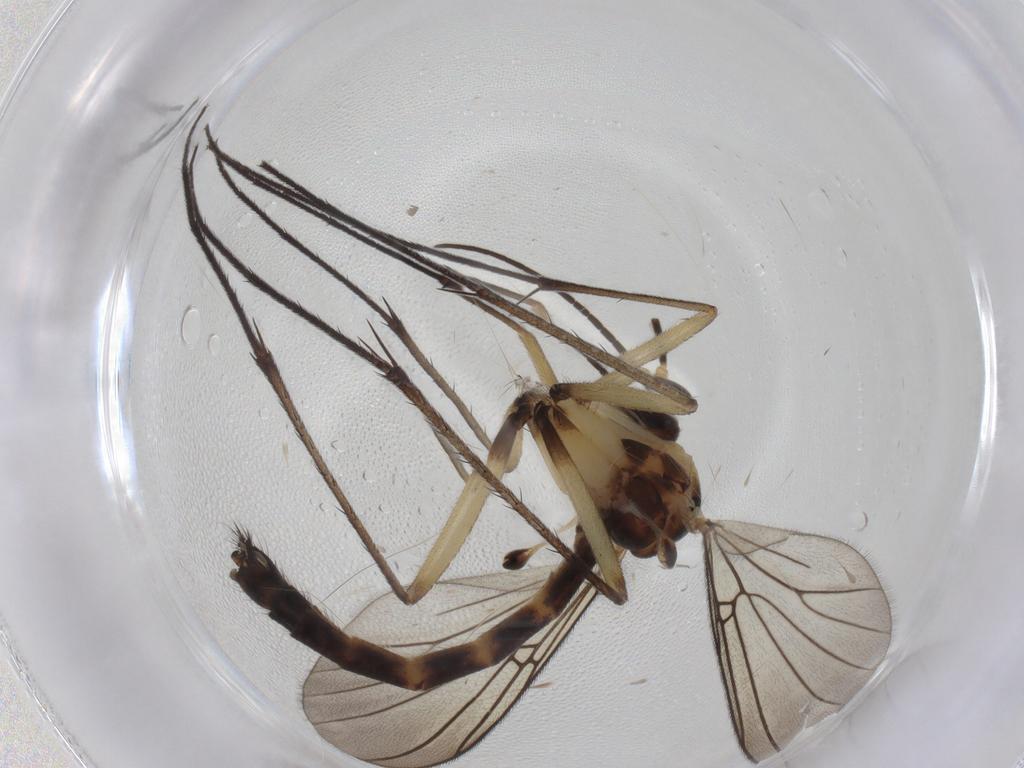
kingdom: Animalia
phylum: Arthropoda
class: Insecta
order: Diptera
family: Mycetophilidae
